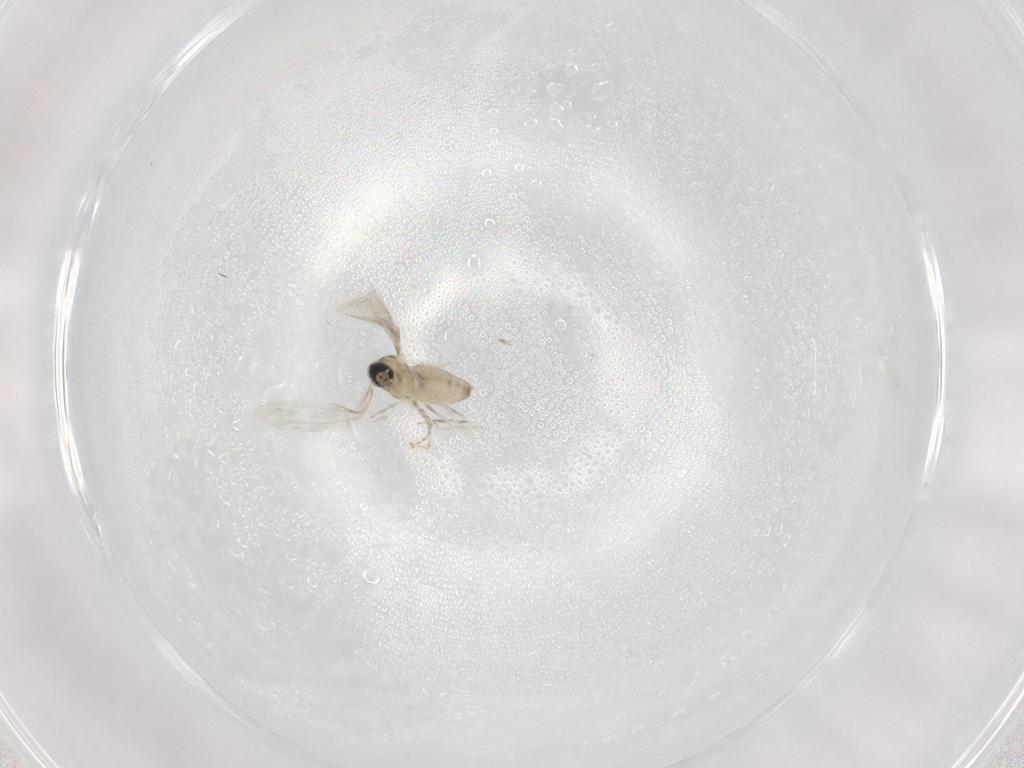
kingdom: Animalia
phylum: Arthropoda
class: Insecta
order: Diptera
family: Cecidomyiidae
